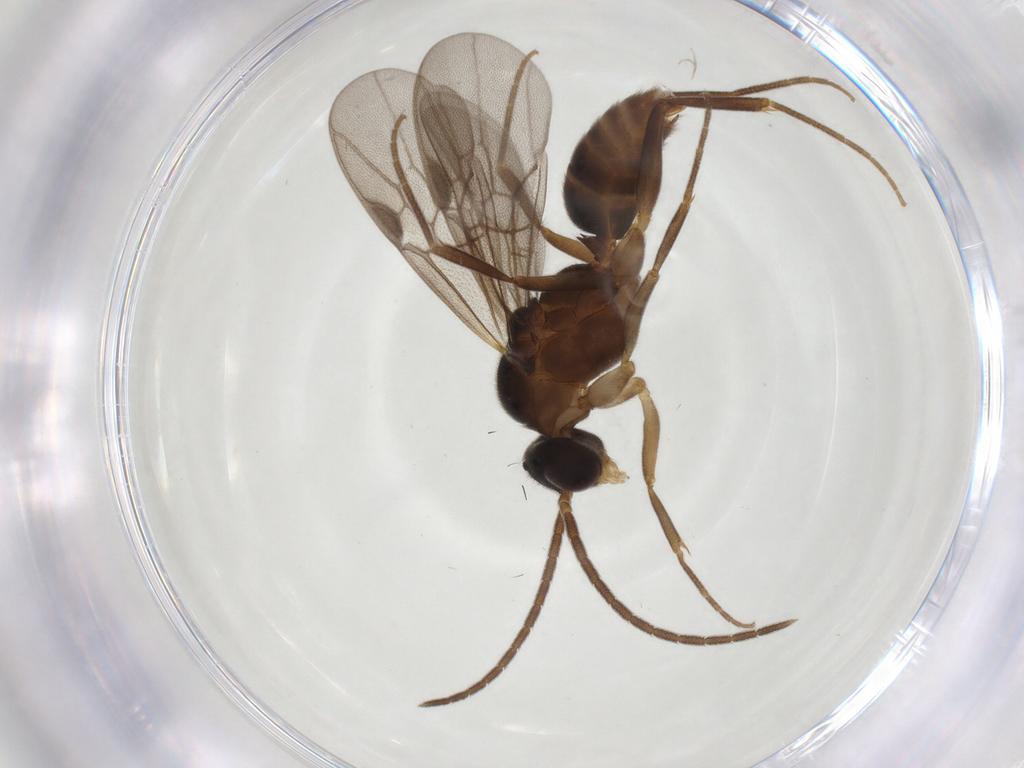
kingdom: Animalia
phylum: Arthropoda
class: Insecta
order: Hymenoptera
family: Formicidae
